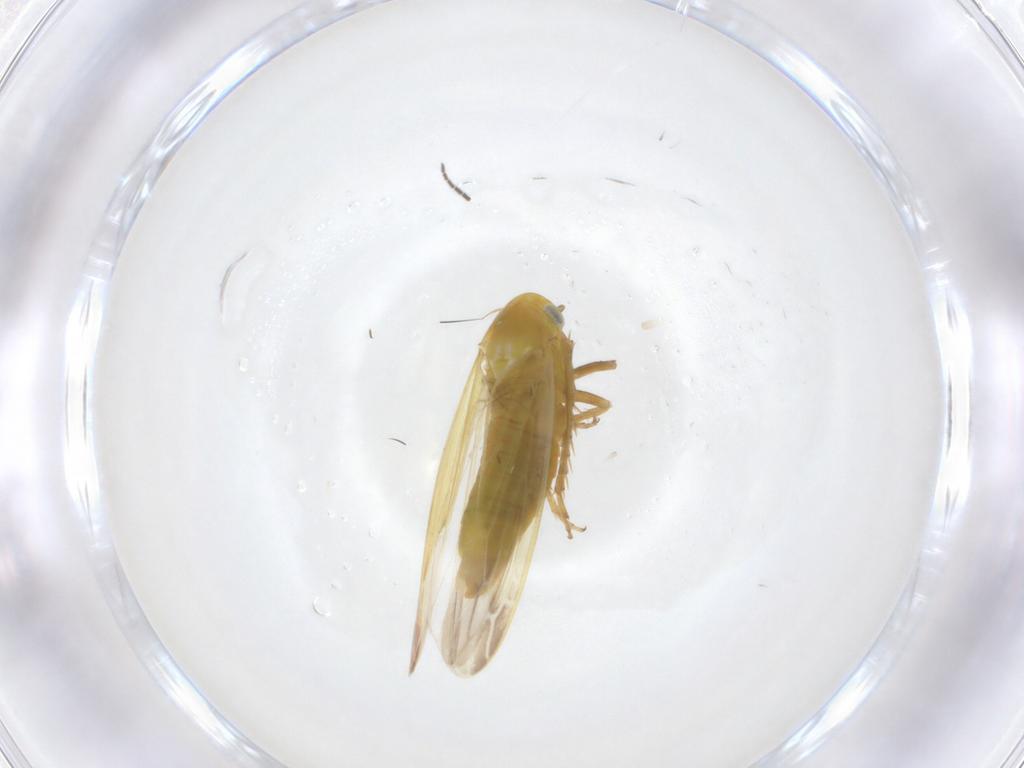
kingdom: Animalia
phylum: Arthropoda
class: Insecta
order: Hemiptera
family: Cicadellidae
